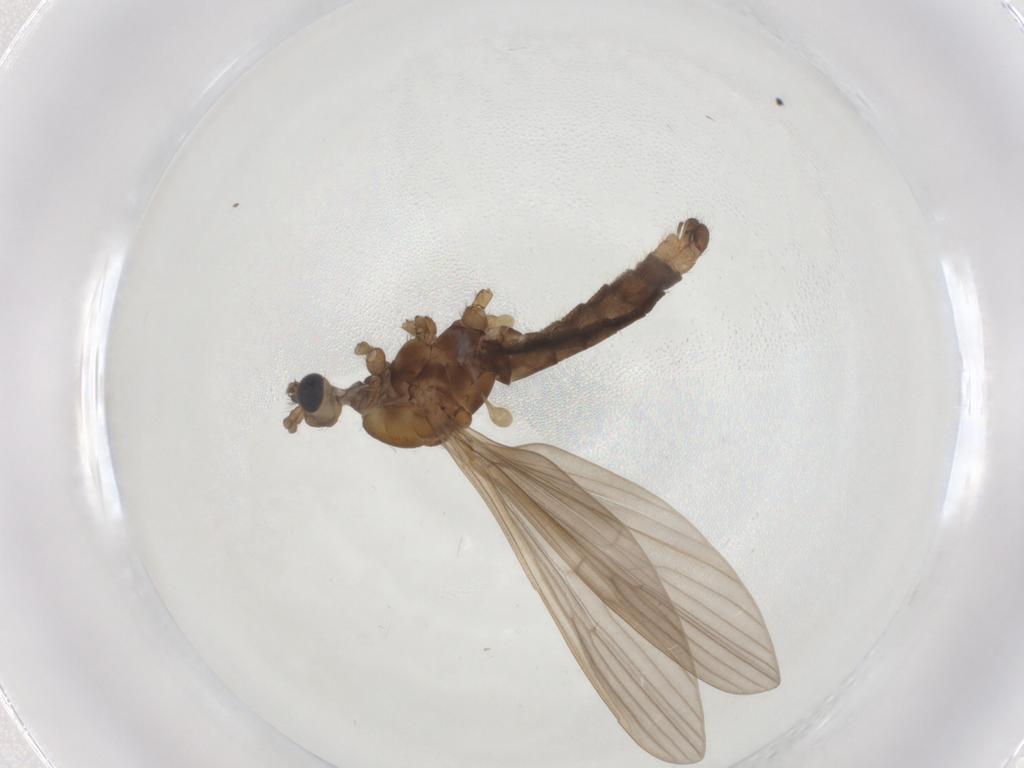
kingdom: Animalia
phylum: Arthropoda
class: Insecta
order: Diptera
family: Limoniidae
